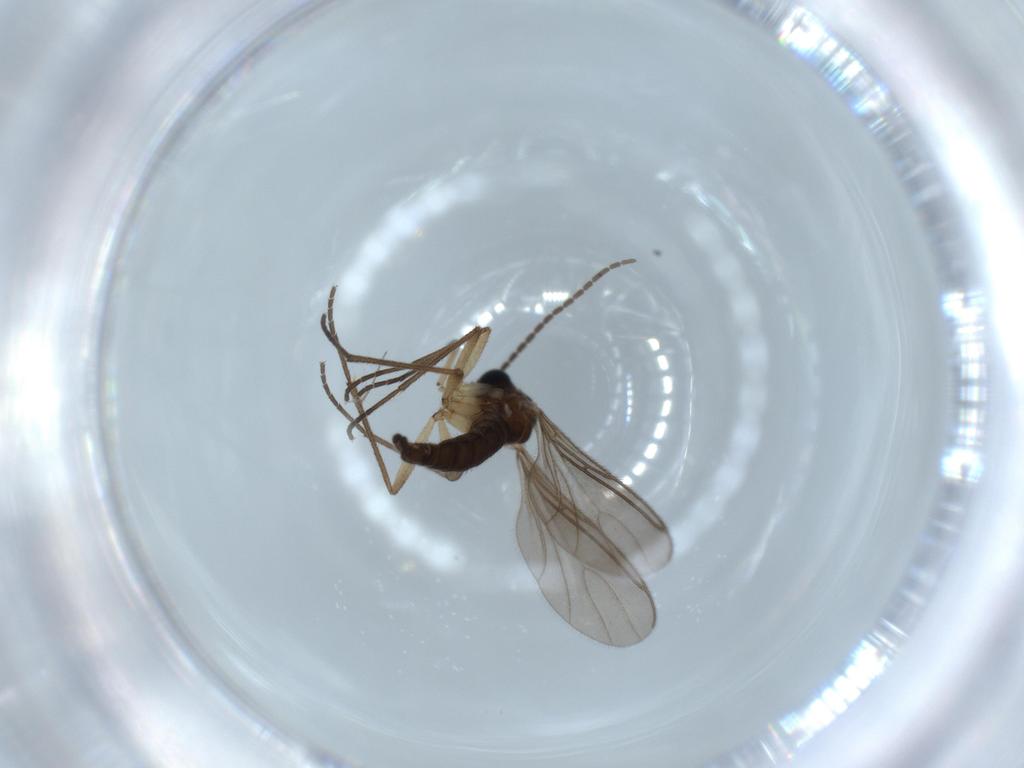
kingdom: Animalia
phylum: Arthropoda
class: Insecta
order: Diptera
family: Sciaridae
